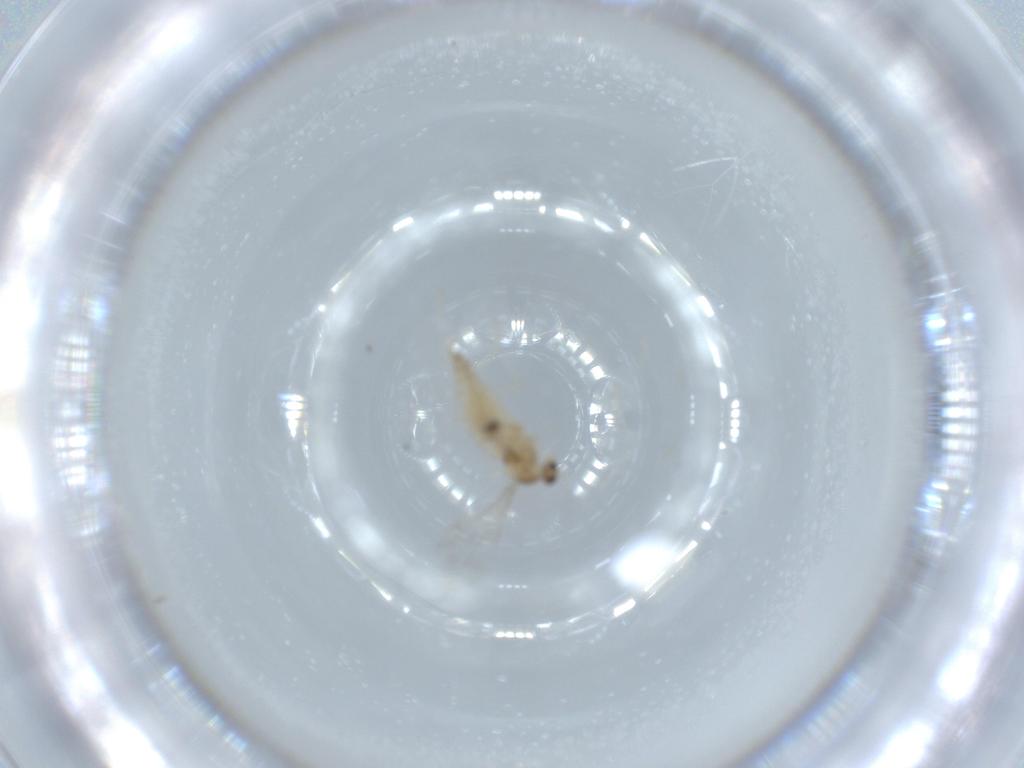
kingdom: Animalia
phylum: Arthropoda
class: Insecta
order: Diptera
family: Cecidomyiidae
